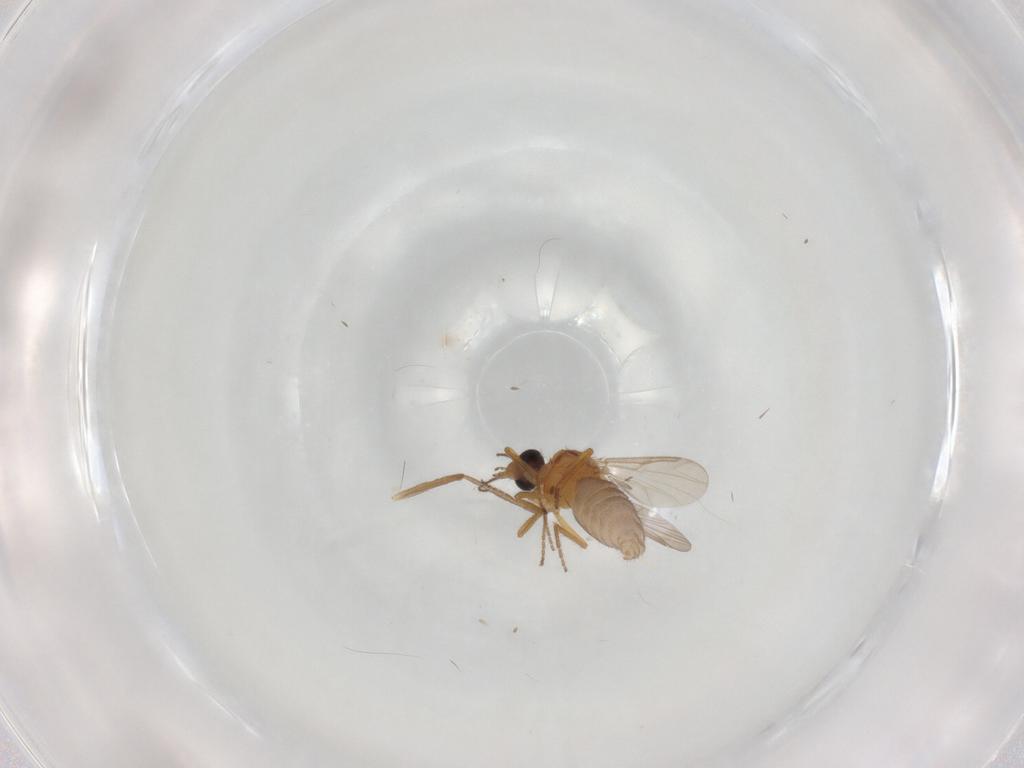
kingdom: Animalia
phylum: Arthropoda
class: Insecta
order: Diptera
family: Ceratopogonidae
